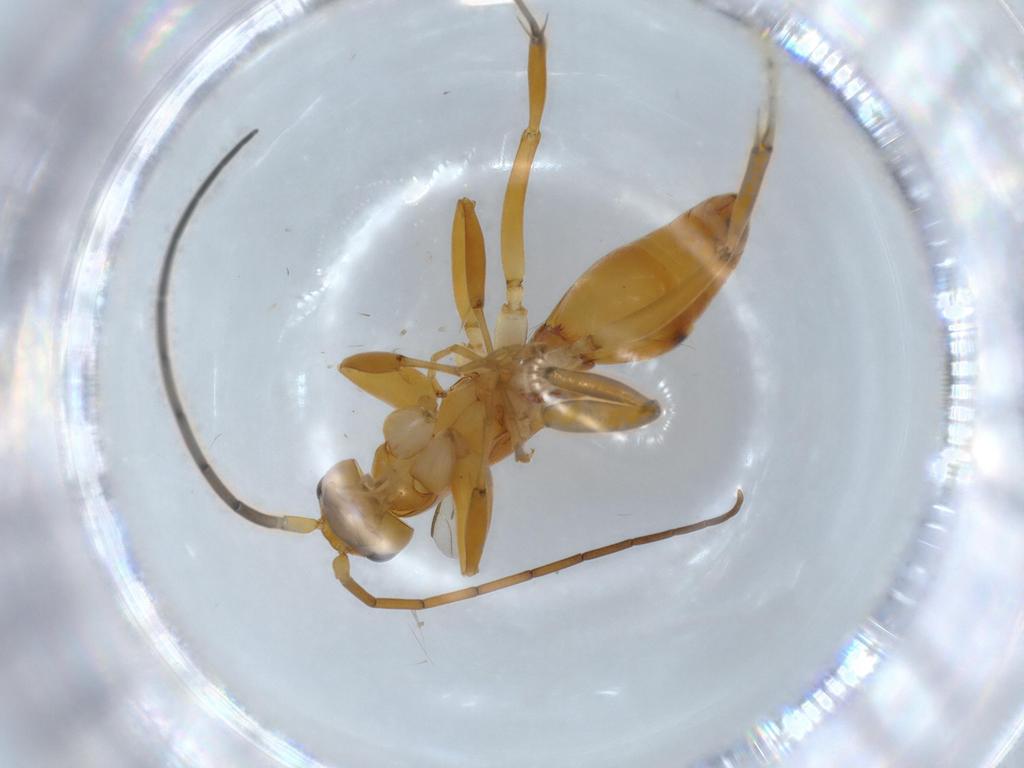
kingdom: Animalia
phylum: Arthropoda
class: Insecta
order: Hymenoptera
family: Rhopalosomatidae
